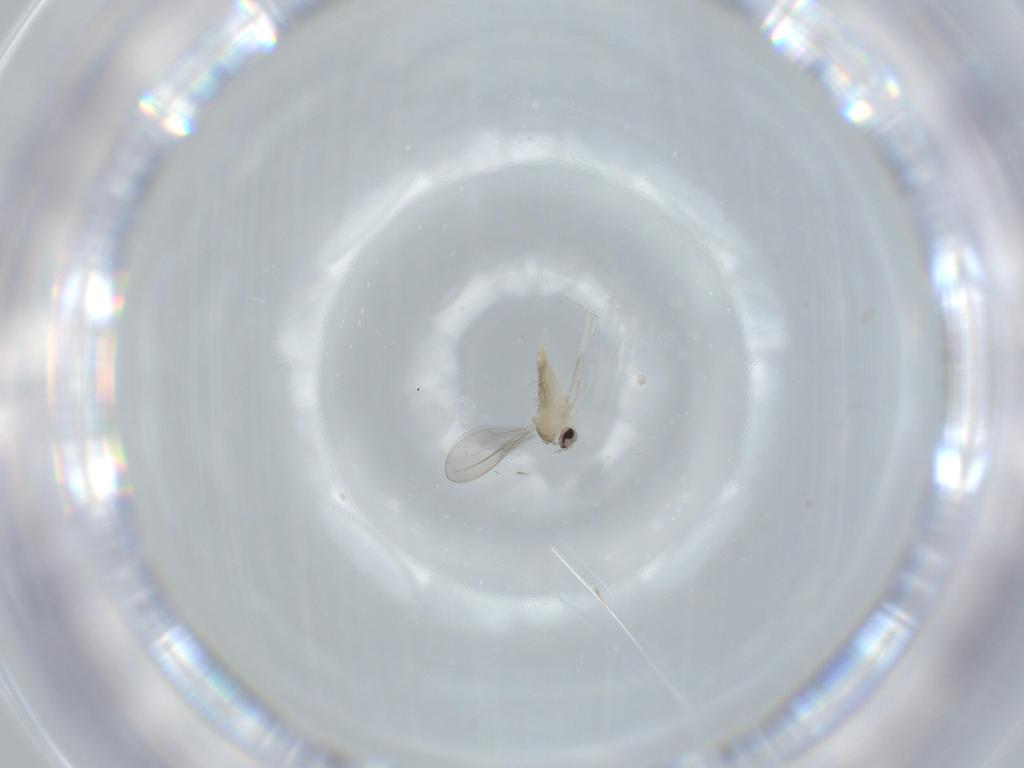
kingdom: Animalia
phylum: Arthropoda
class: Insecta
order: Diptera
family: Cecidomyiidae
